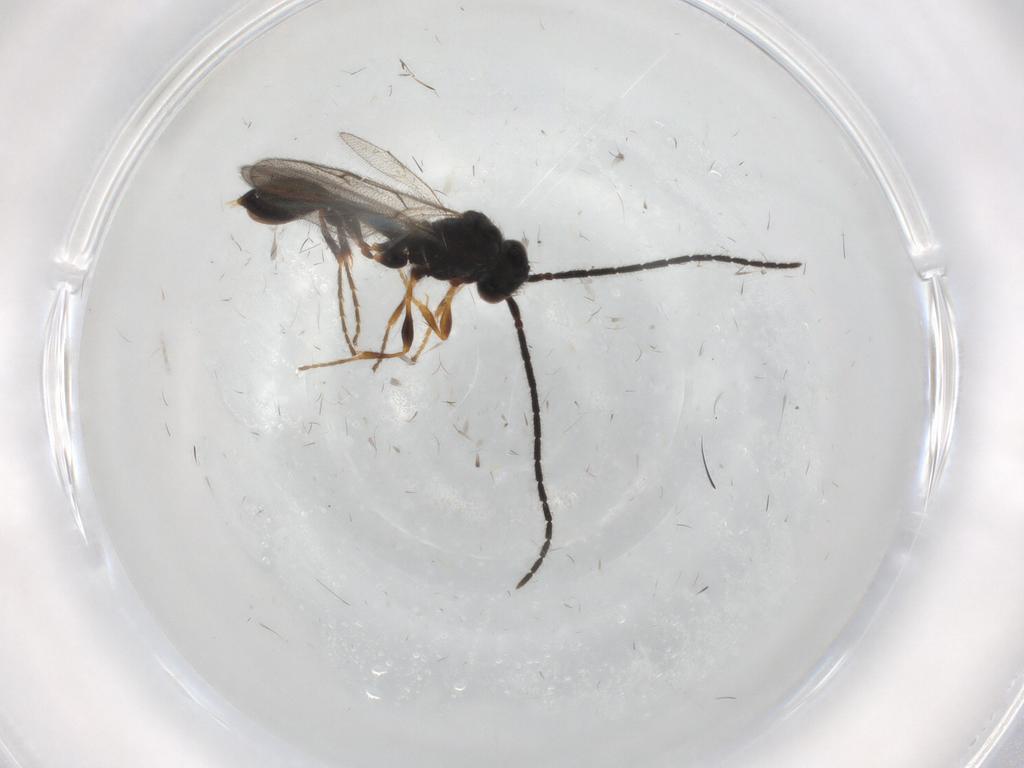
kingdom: Animalia
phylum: Arthropoda
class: Insecta
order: Hymenoptera
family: Diapriidae
